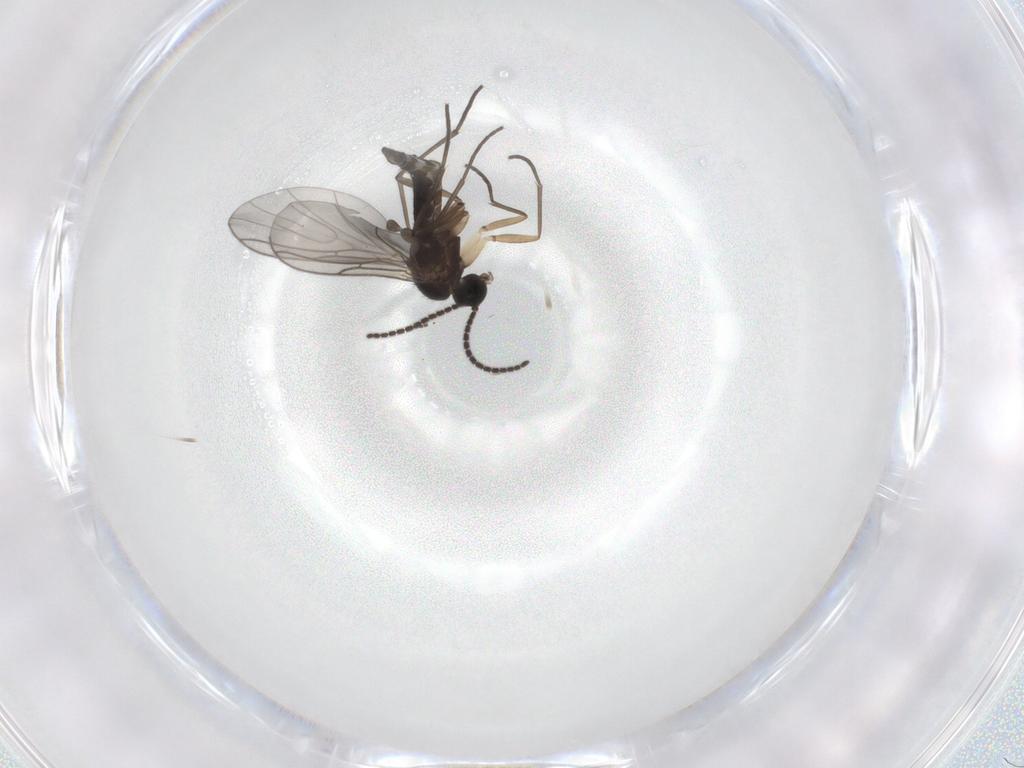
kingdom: Animalia
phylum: Arthropoda
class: Insecta
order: Diptera
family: Sciaridae
